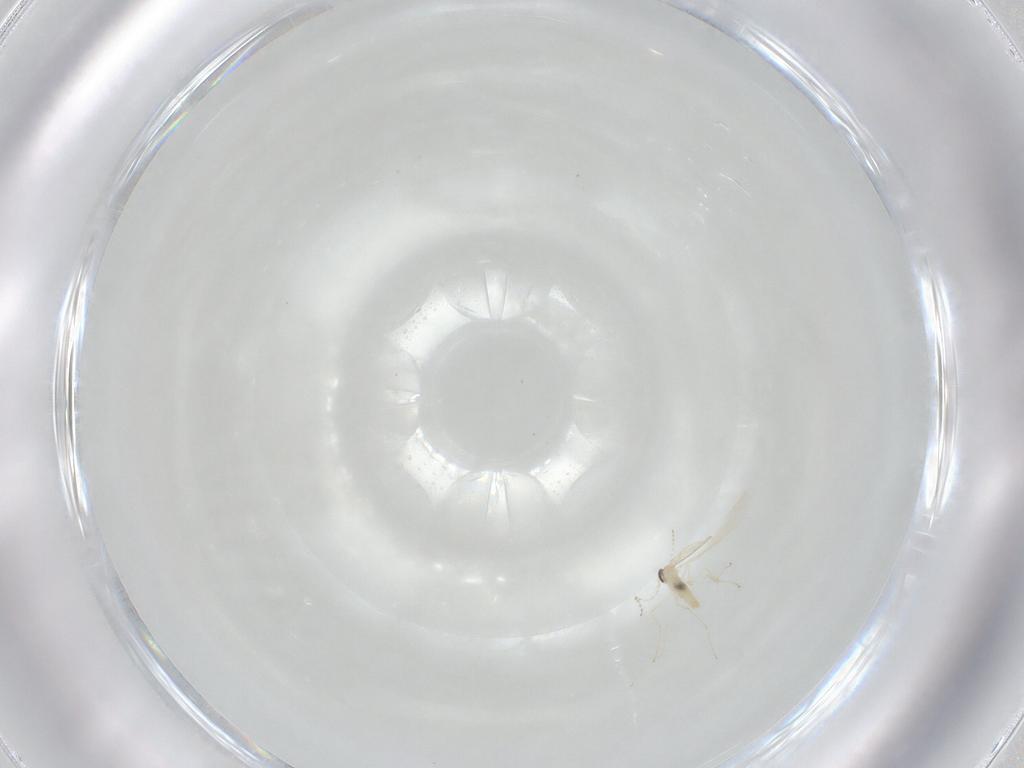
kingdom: Animalia
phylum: Arthropoda
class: Insecta
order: Diptera
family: Cecidomyiidae
